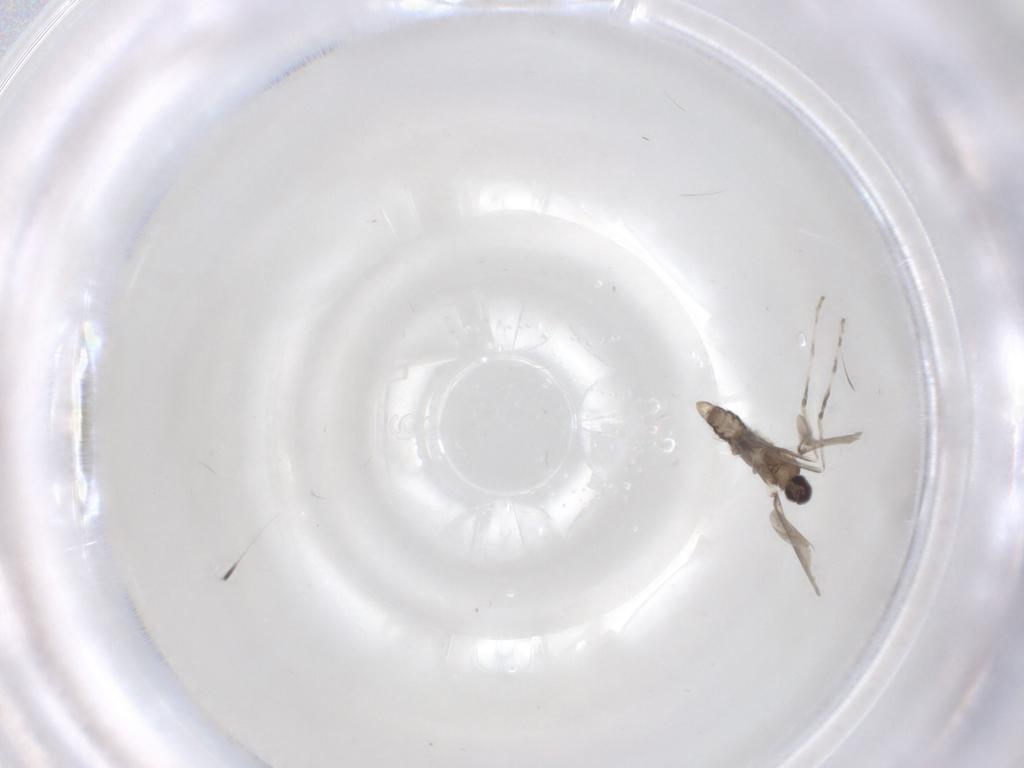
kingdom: Animalia
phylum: Arthropoda
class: Insecta
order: Diptera
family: Cecidomyiidae
